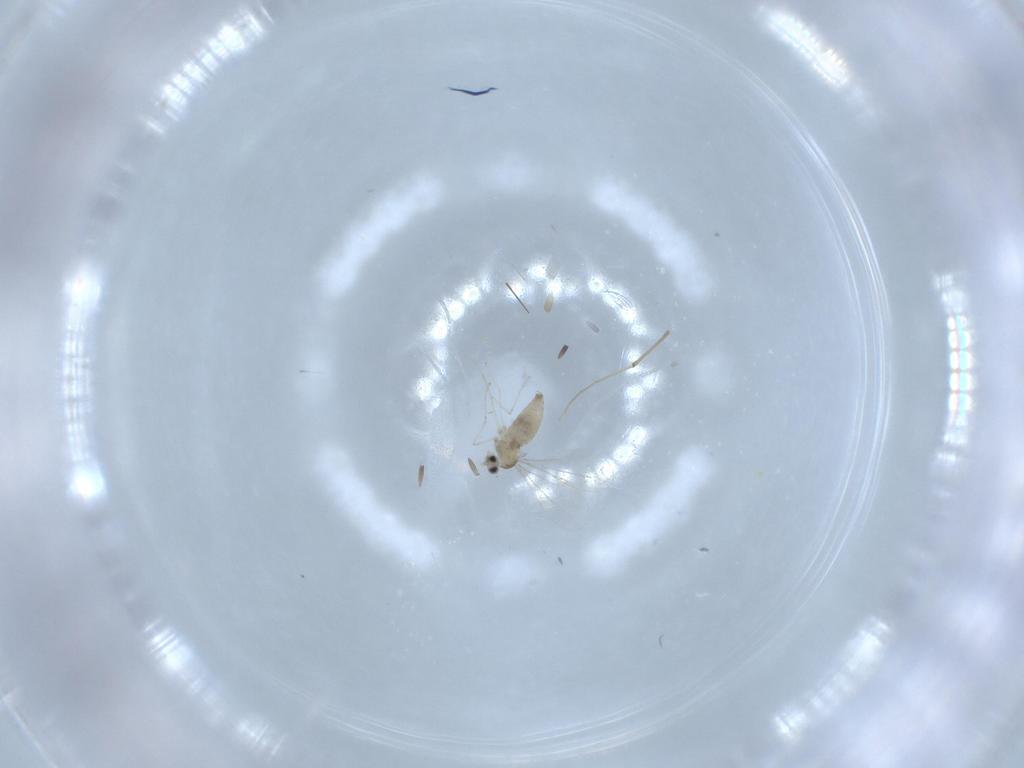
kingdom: Animalia
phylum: Arthropoda
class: Insecta
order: Diptera
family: Cecidomyiidae
